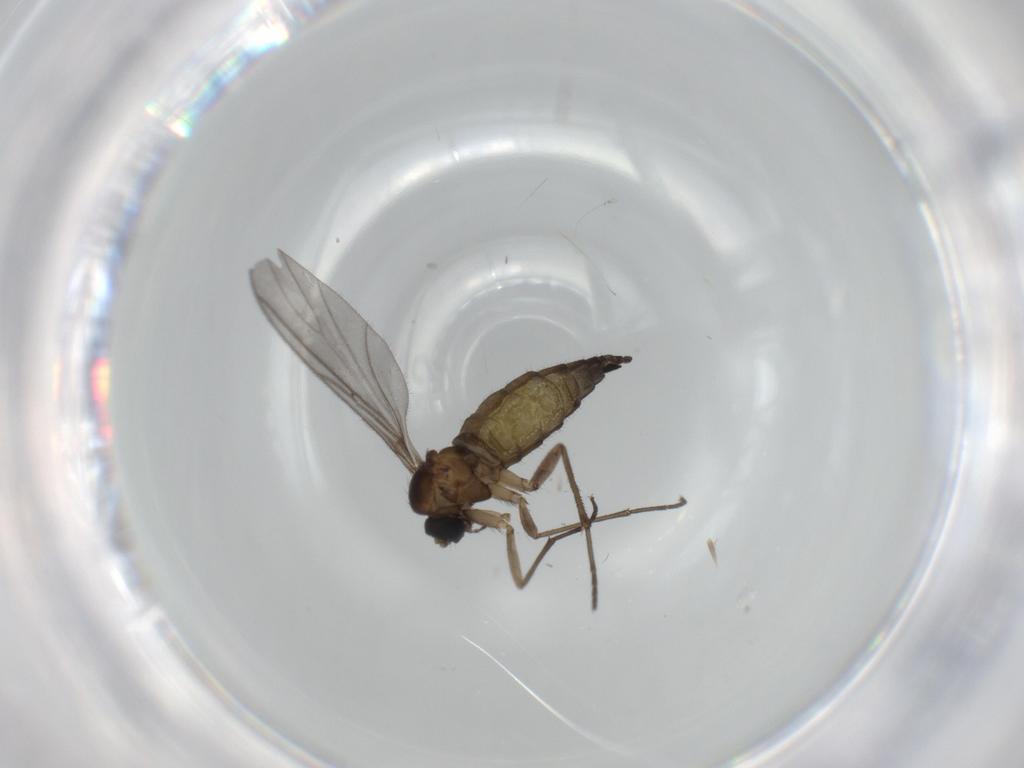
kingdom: Animalia
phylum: Arthropoda
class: Insecta
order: Diptera
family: Sciaridae
